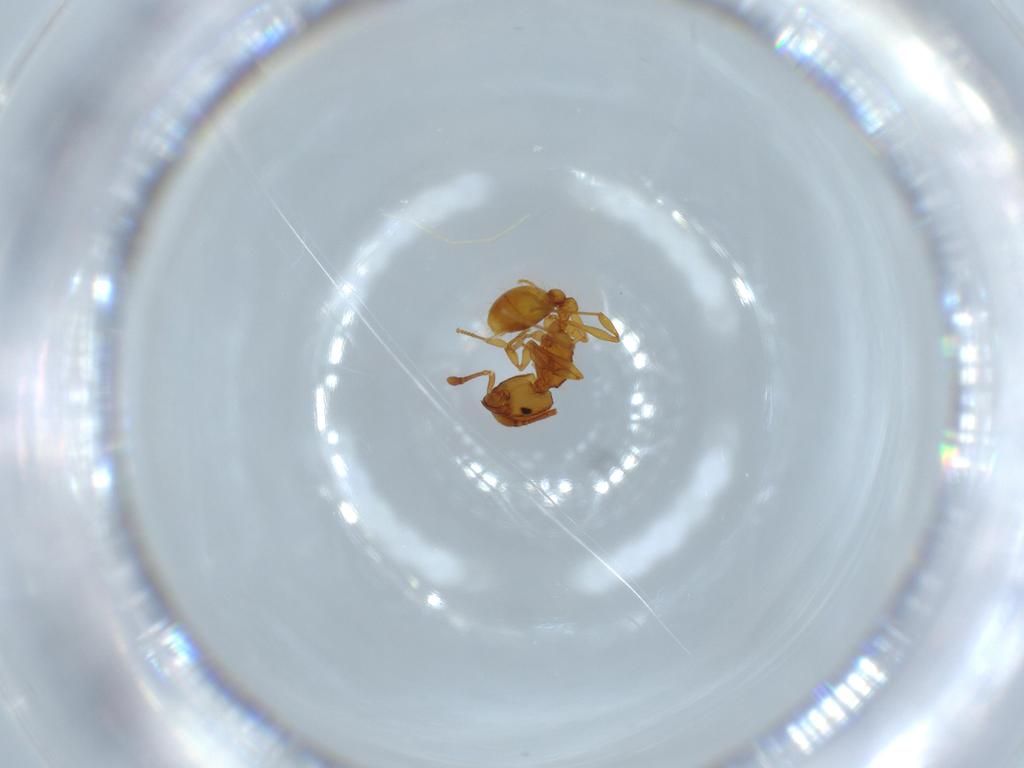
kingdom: Animalia
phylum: Arthropoda
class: Insecta
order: Hymenoptera
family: Formicidae
